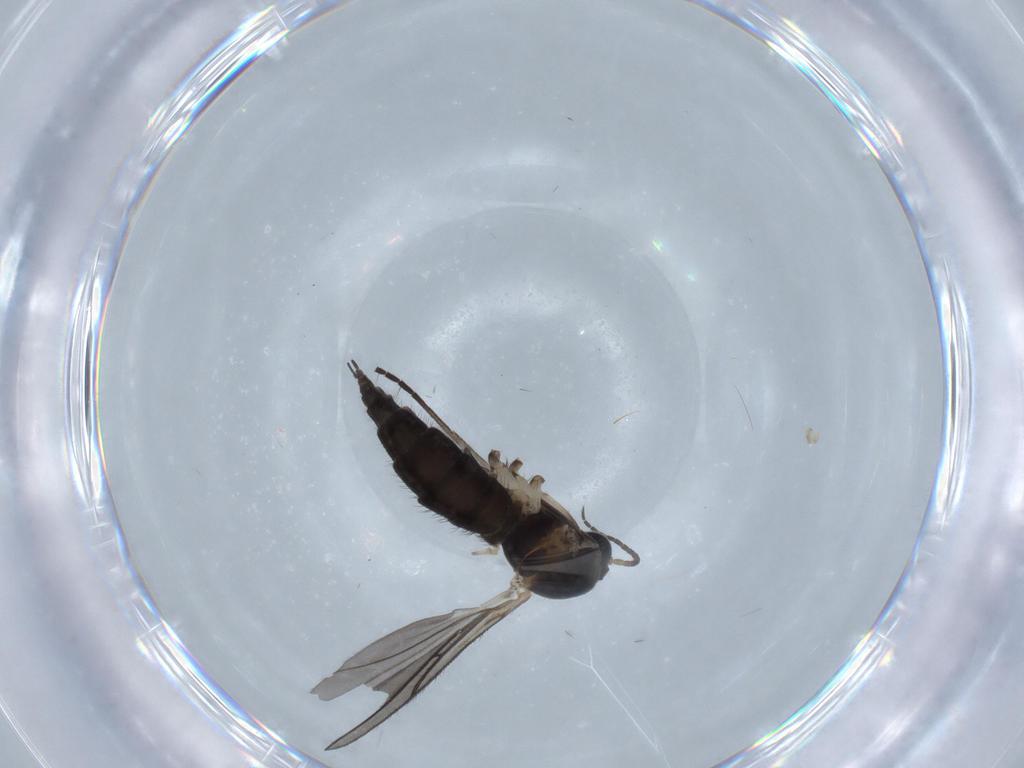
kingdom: Animalia
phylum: Arthropoda
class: Insecta
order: Diptera
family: Sciaridae
